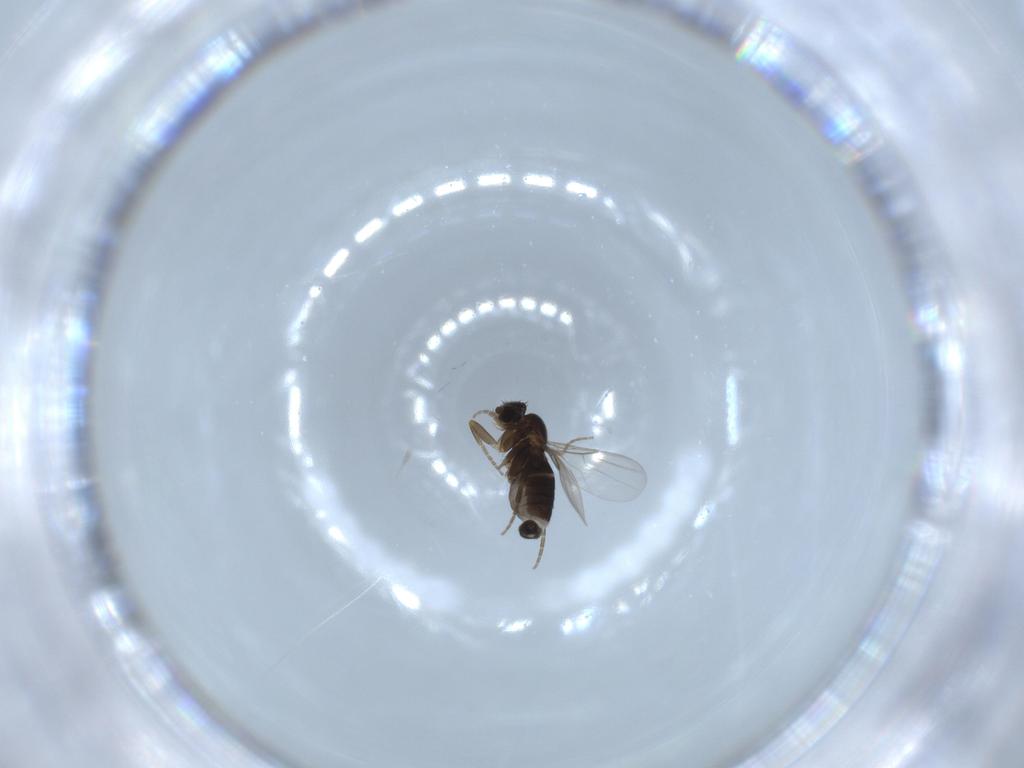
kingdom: Animalia
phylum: Arthropoda
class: Insecta
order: Diptera
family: Phoridae
